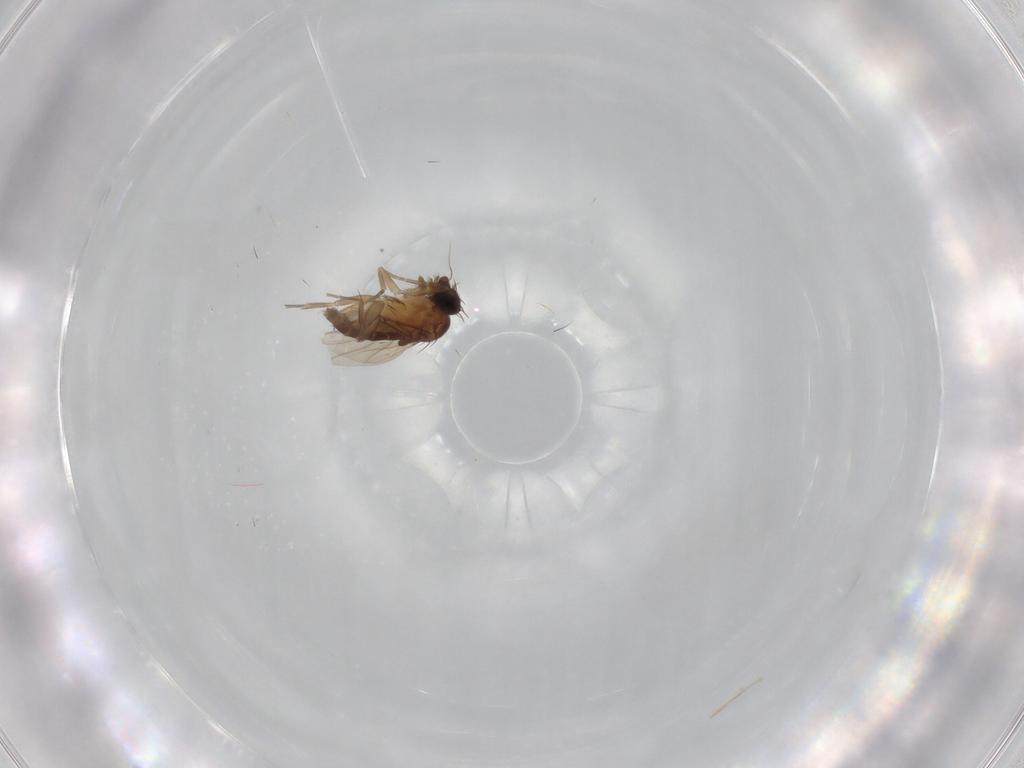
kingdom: Animalia
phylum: Arthropoda
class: Insecta
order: Diptera
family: Phoridae
